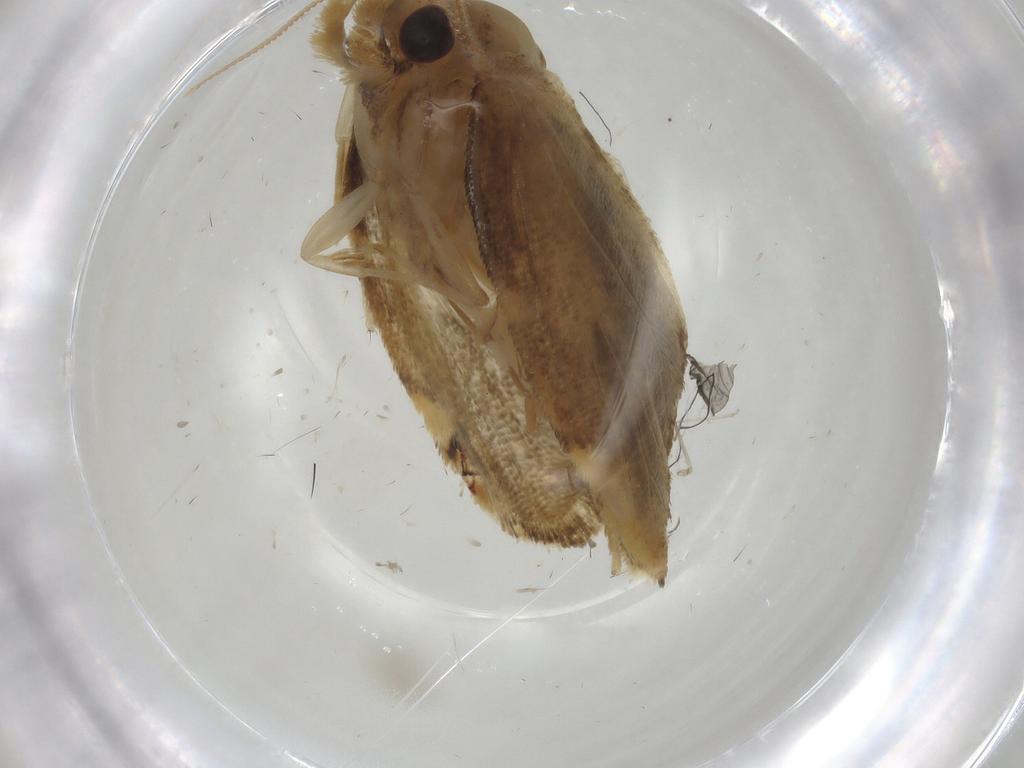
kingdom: Animalia
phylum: Arthropoda
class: Insecta
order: Lepidoptera
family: Psychidae
